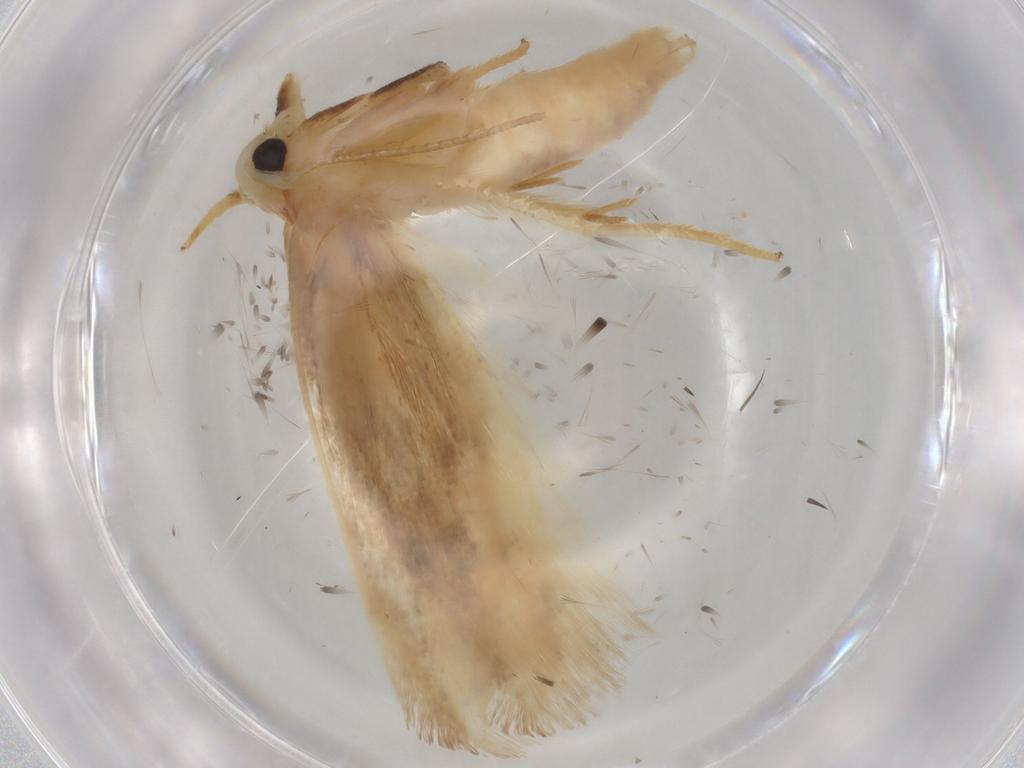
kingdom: Animalia
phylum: Arthropoda
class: Insecta
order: Lepidoptera
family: Geometridae
